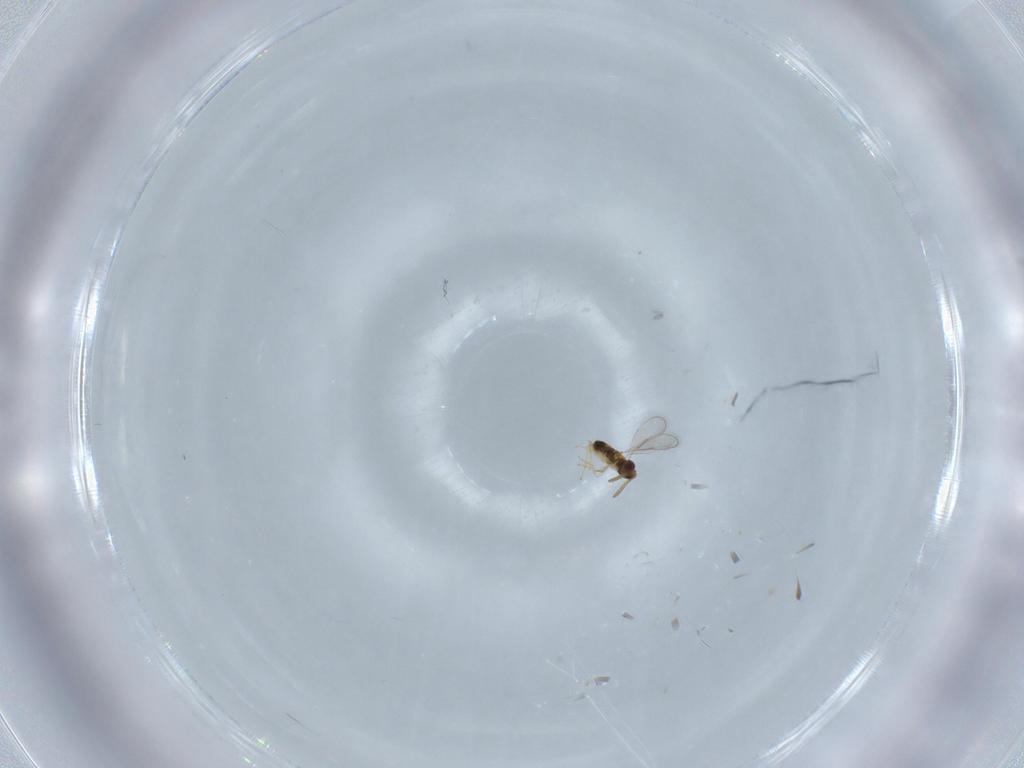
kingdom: Animalia
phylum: Arthropoda
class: Insecta
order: Hymenoptera
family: Aphelinidae
